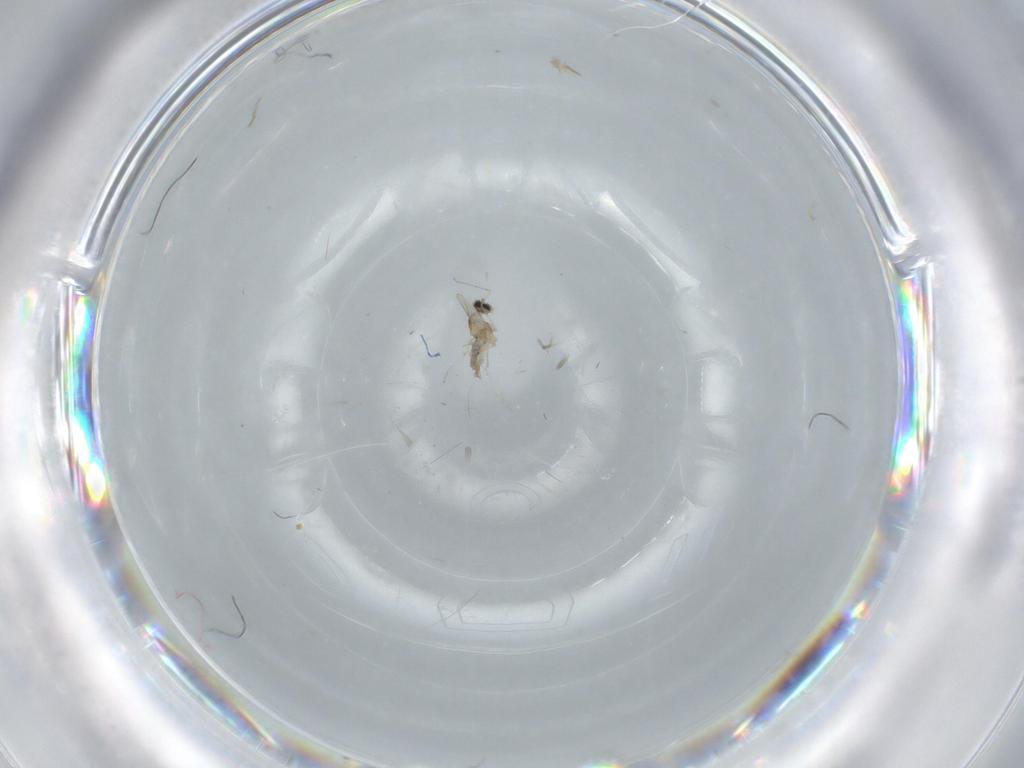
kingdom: Animalia
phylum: Arthropoda
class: Insecta
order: Diptera
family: Cecidomyiidae
